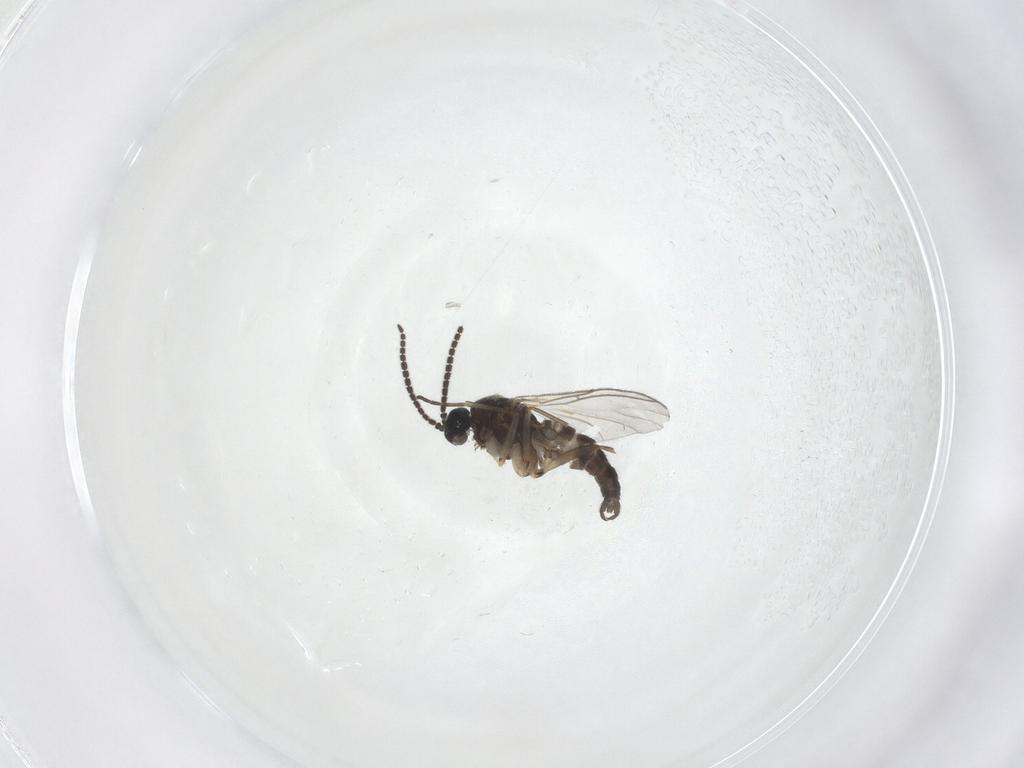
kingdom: Animalia
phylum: Arthropoda
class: Insecta
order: Diptera
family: Sciaridae
